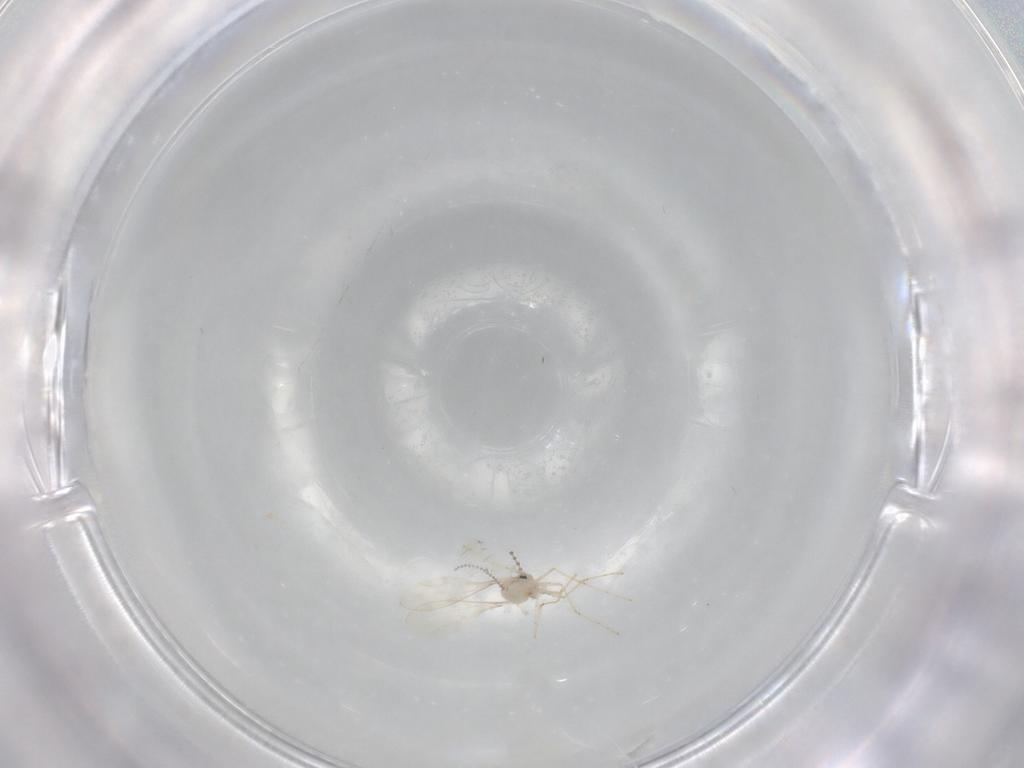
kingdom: Animalia
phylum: Arthropoda
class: Insecta
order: Diptera
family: Cecidomyiidae
